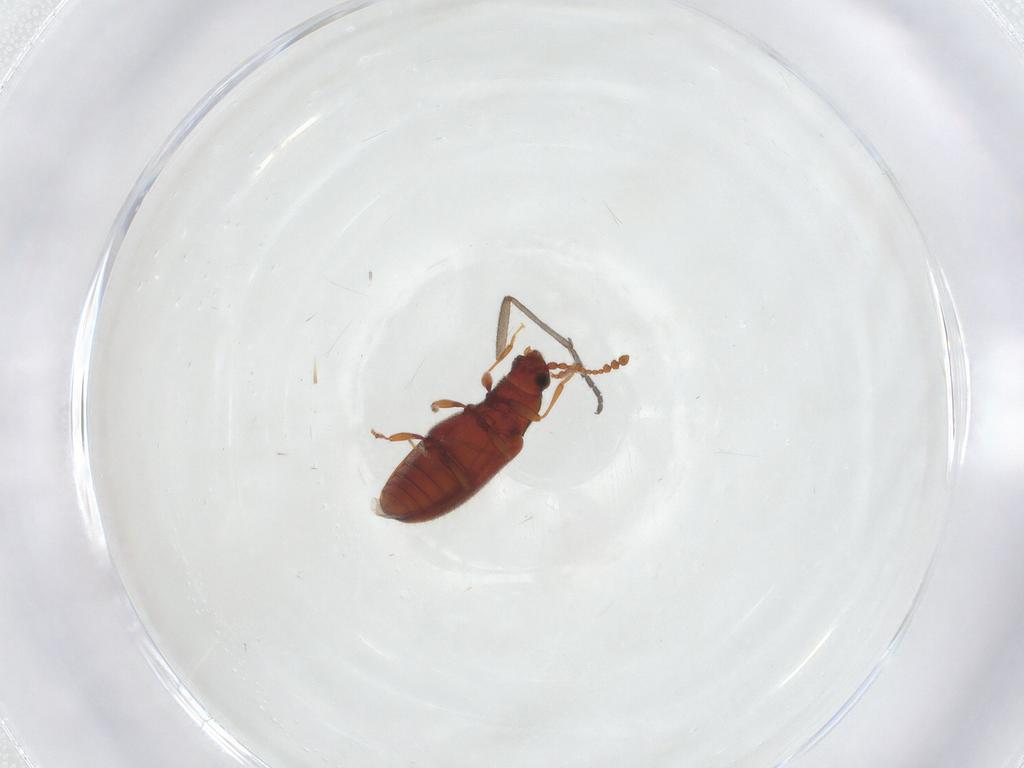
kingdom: Animalia
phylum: Arthropoda
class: Insecta
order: Coleoptera
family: Cryptophagidae
